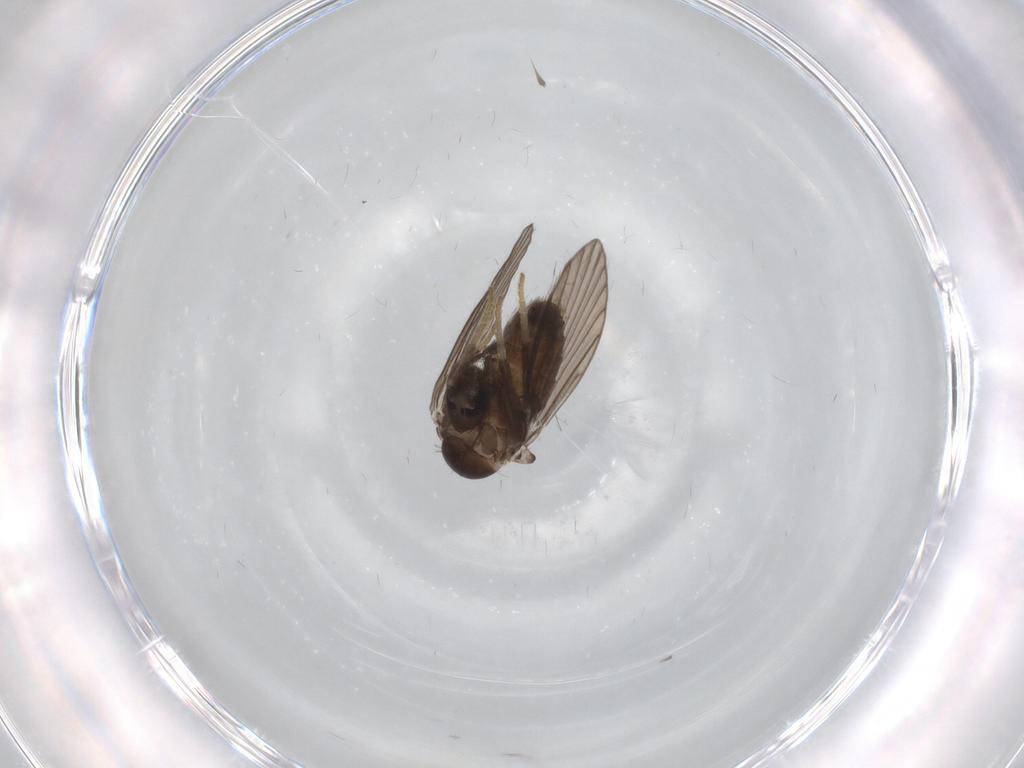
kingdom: Animalia
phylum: Arthropoda
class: Insecta
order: Diptera
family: Psychodidae
